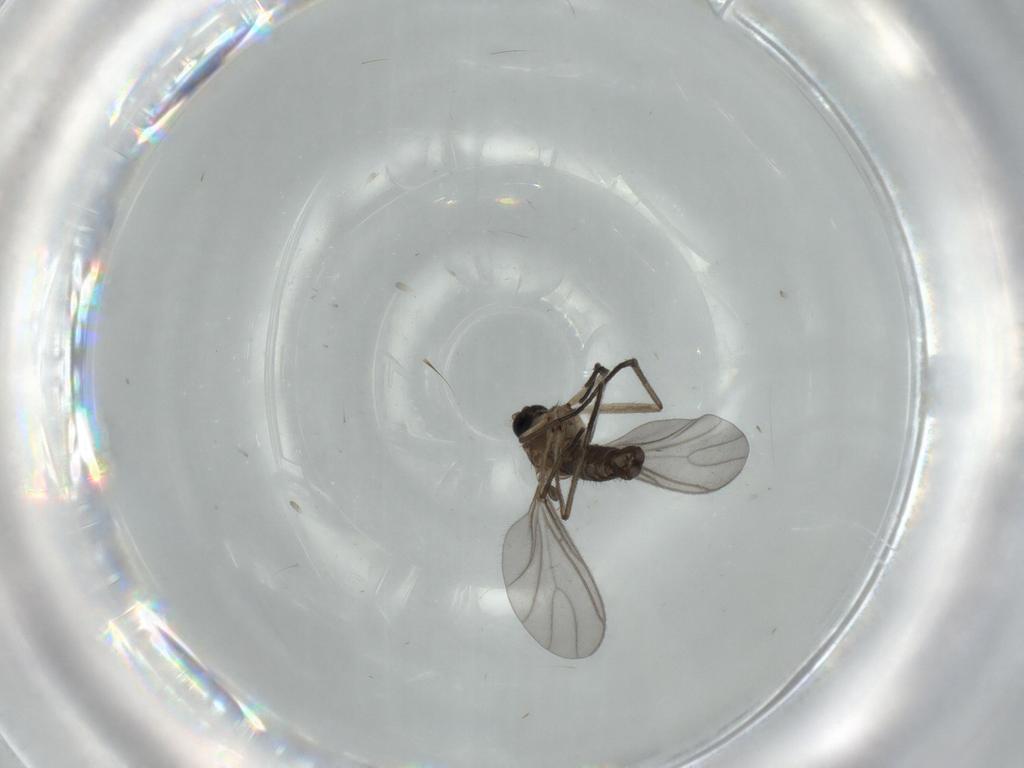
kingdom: Animalia
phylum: Arthropoda
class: Insecta
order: Diptera
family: Sciaridae
